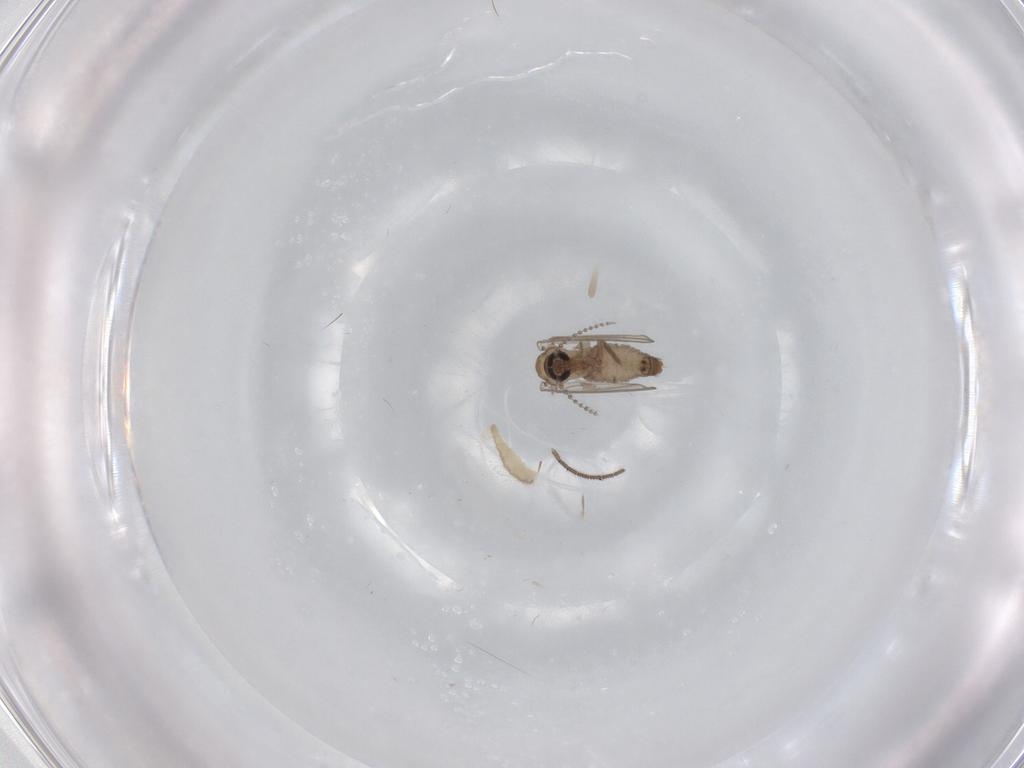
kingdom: Animalia
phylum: Arthropoda
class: Insecta
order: Diptera
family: Psychodidae
